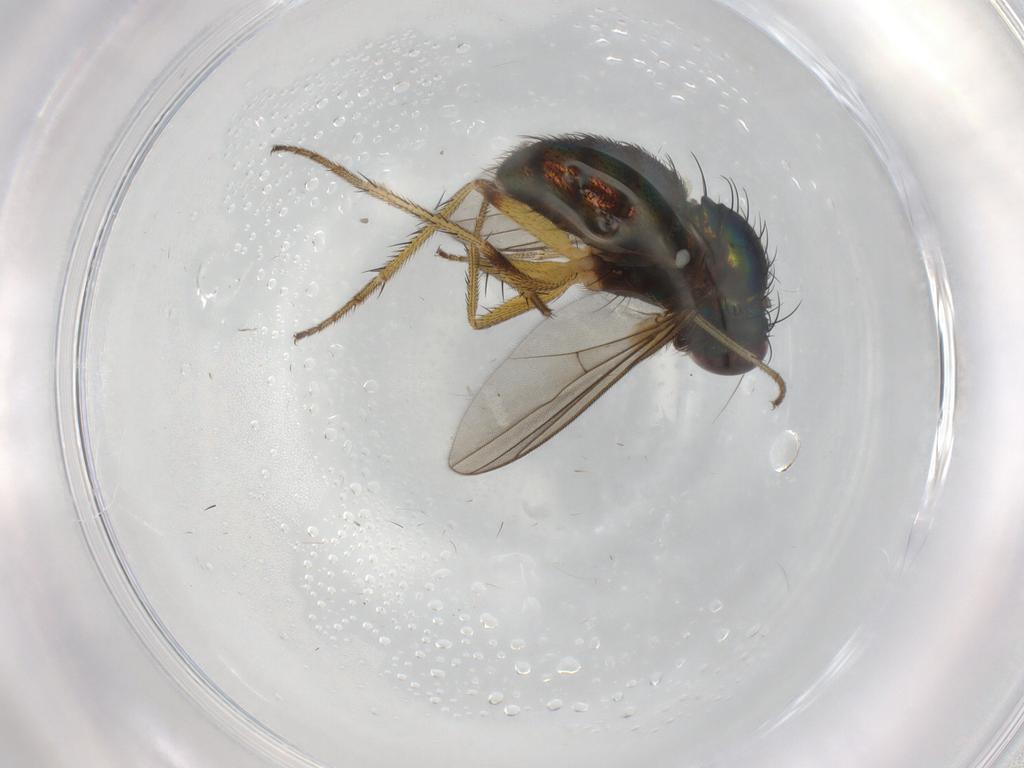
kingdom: Animalia
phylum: Arthropoda
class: Insecta
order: Diptera
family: Dolichopodidae
